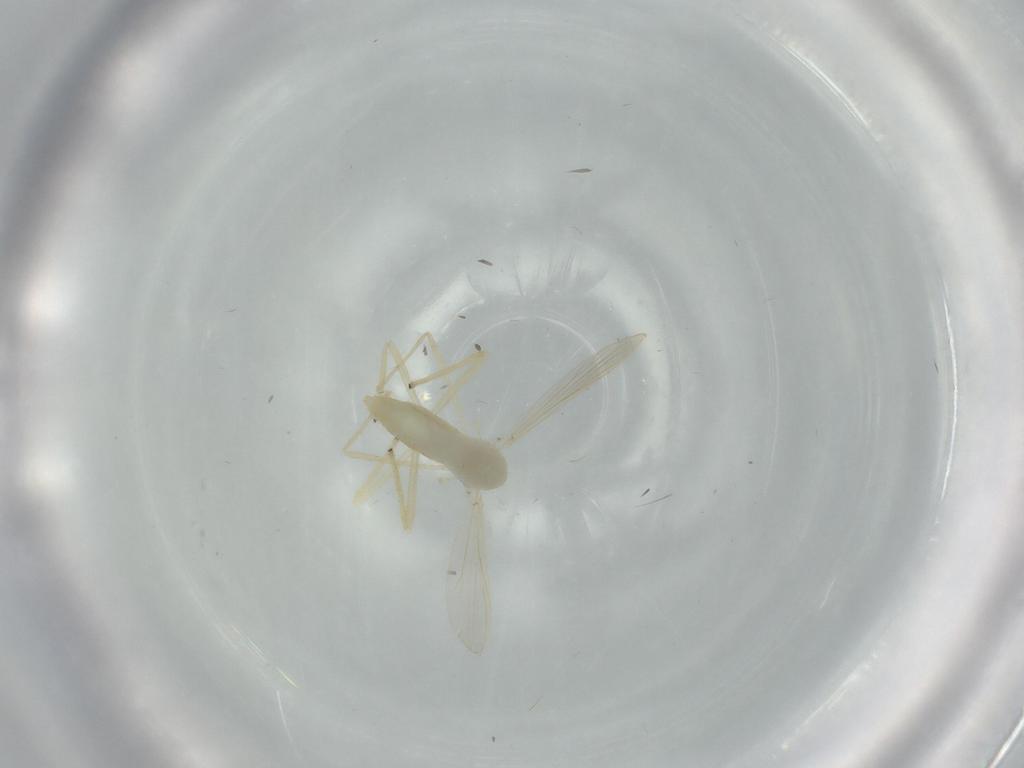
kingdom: Animalia
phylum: Arthropoda
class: Insecta
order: Diptera
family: Chironomidae
